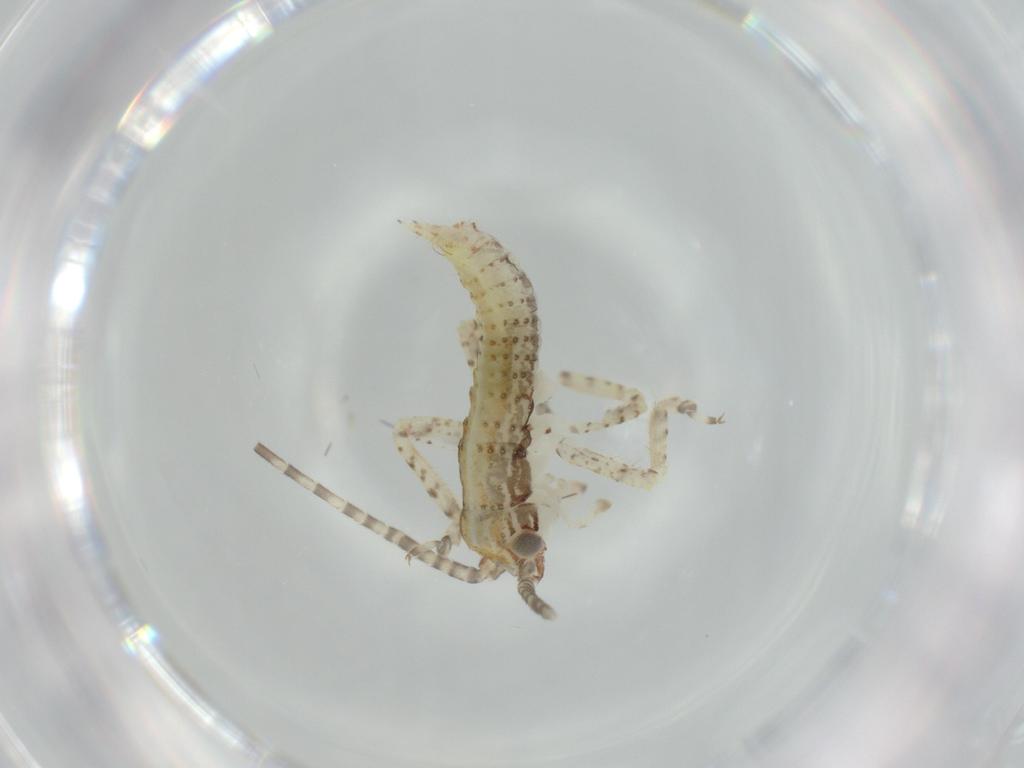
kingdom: Animalia
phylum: Arthropoda
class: Insecta
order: Orthoptera
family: Gryllidae
